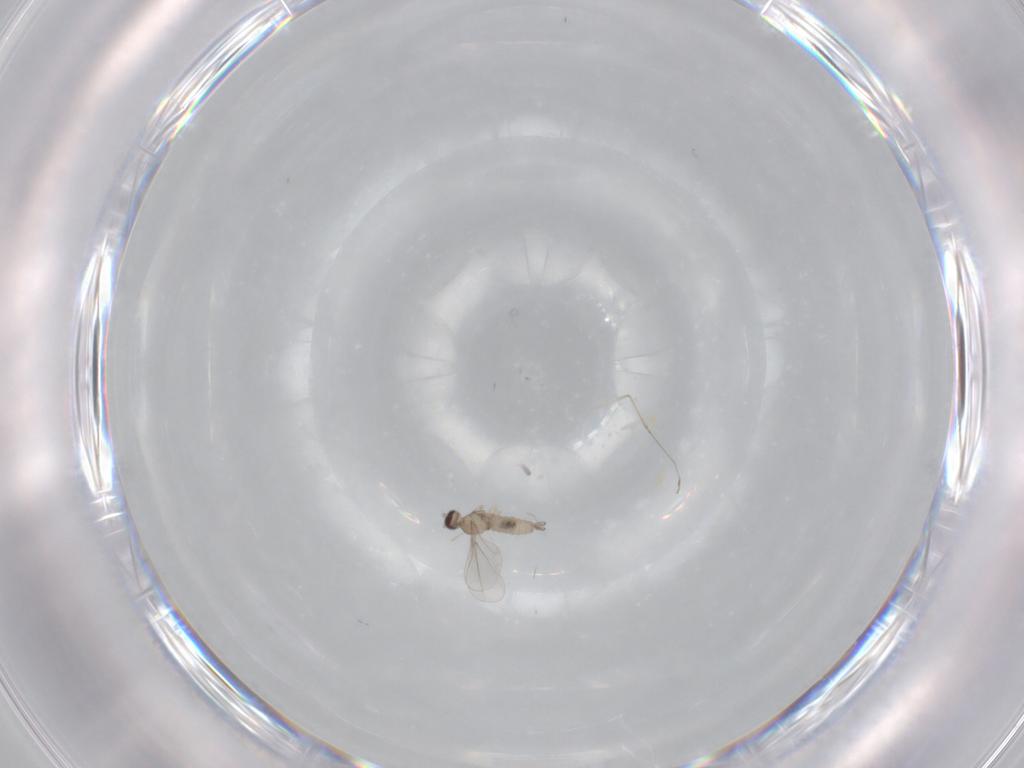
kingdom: Animalia
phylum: Arthropoda
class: Insecta
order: Diptera
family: Cecidomyiidae
